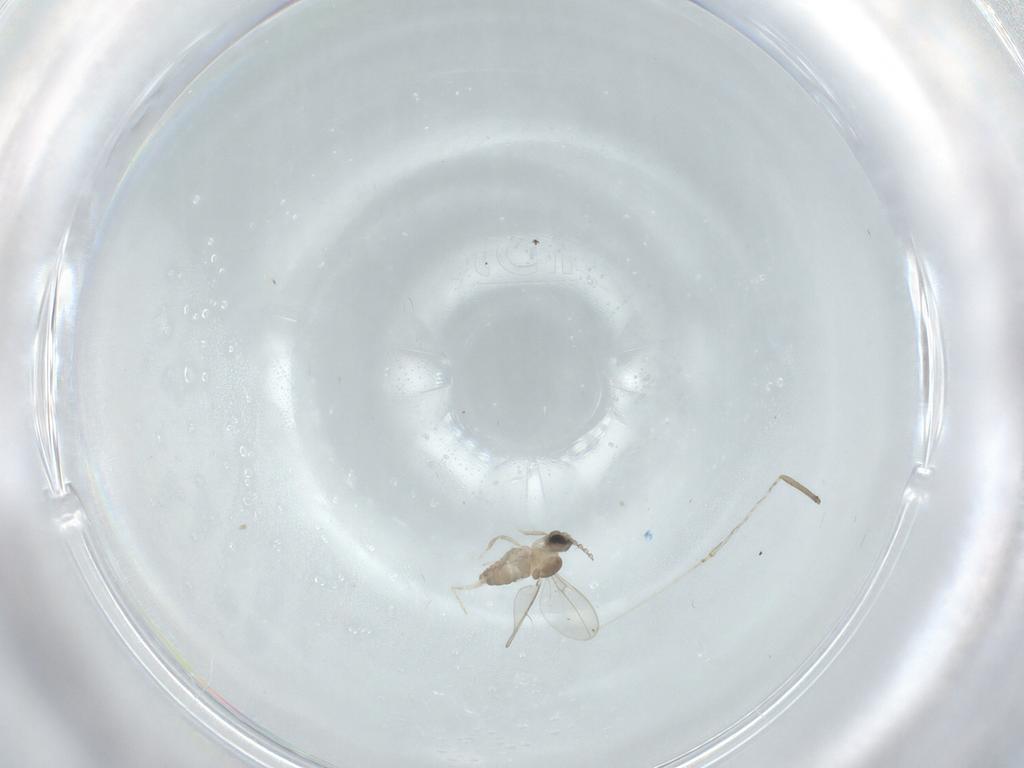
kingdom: Animalia
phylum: Arthropoda
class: Insecta
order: Diptera
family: Cecidomyiidae
